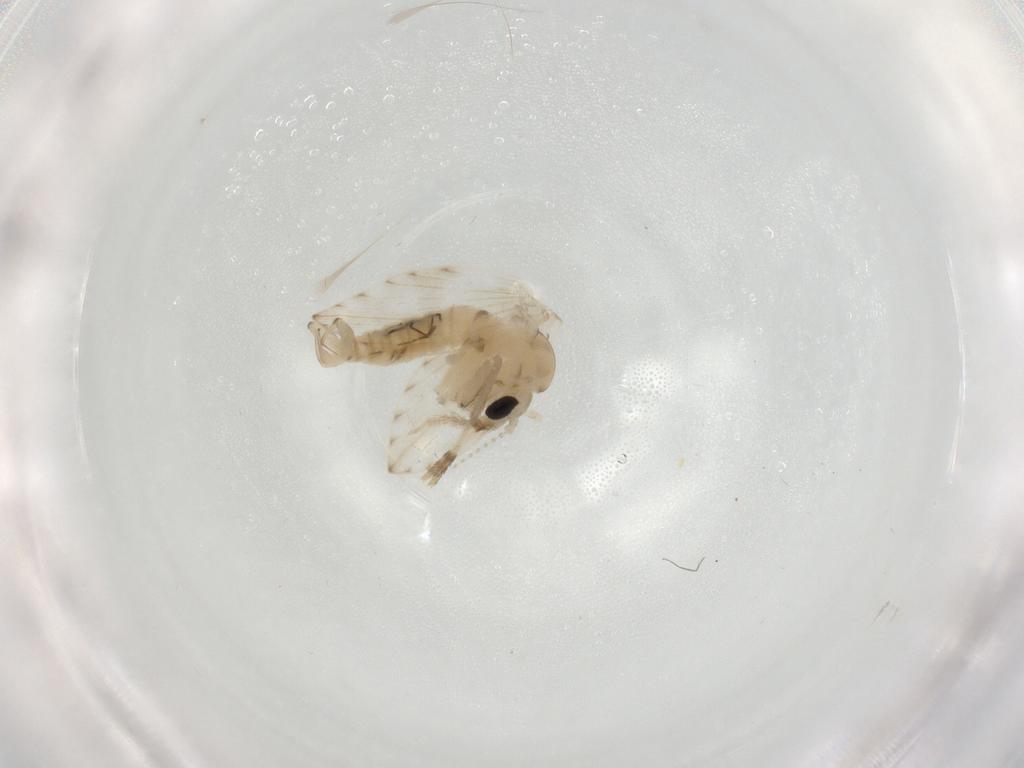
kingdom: Animalia
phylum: Arthropoda
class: Insecta
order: Diptera
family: Psychodidae
